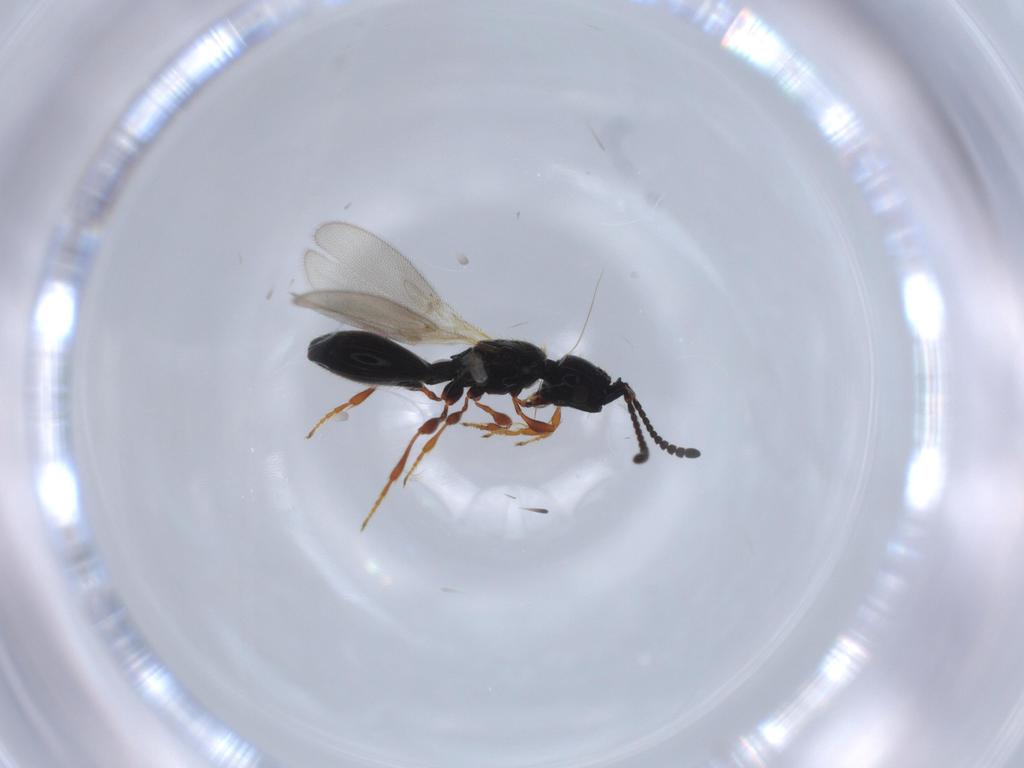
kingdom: Animalia
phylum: Arthropoda
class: Insecta
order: Hymenoptera
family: Diapriidae
